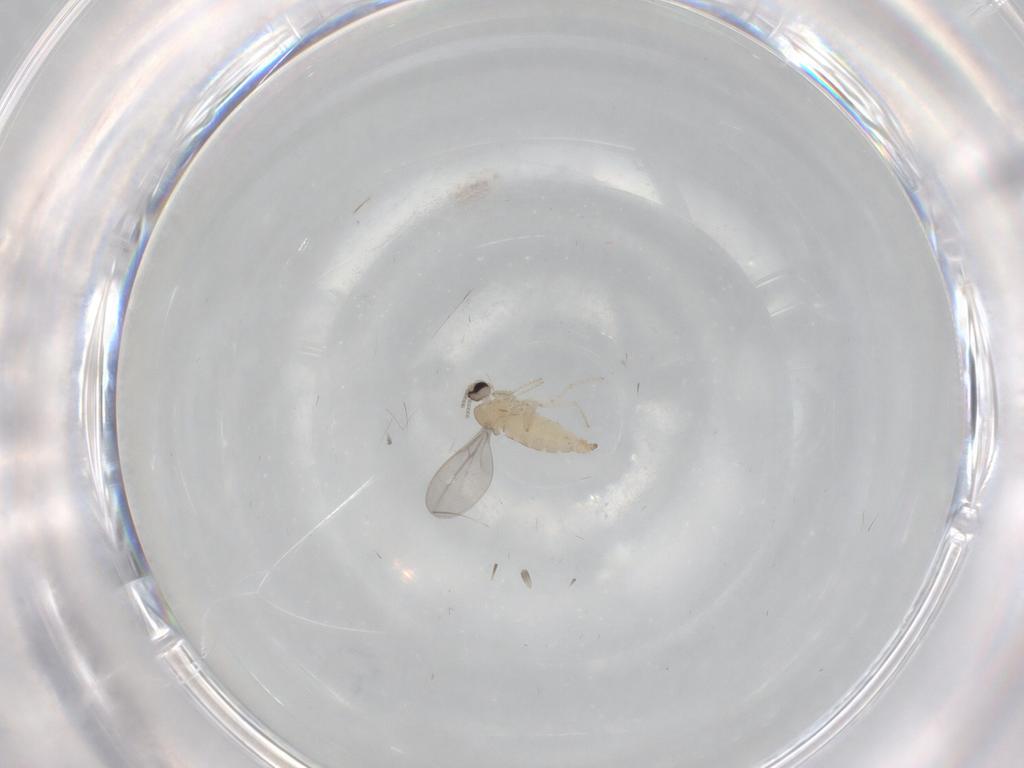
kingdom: Animalia
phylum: Arthropoda
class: Insecta
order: Diptera
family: Cecidomyiidae
